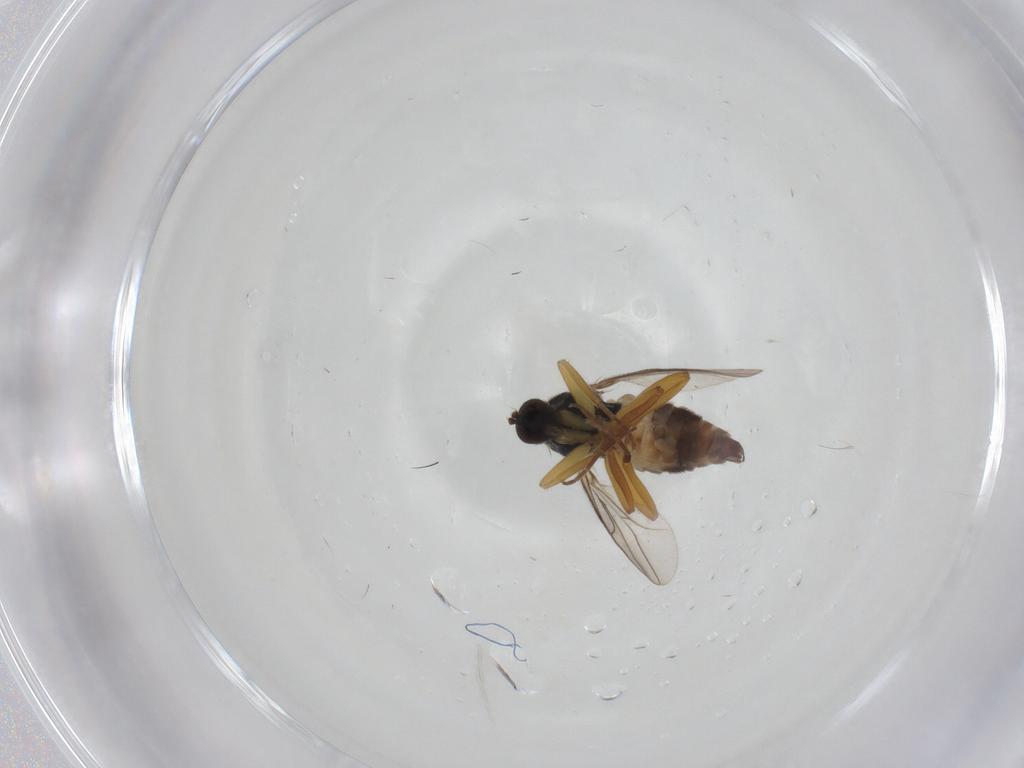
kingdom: Animalia
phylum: Arthropoda
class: Insecta
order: Diptera
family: Hybotidae
